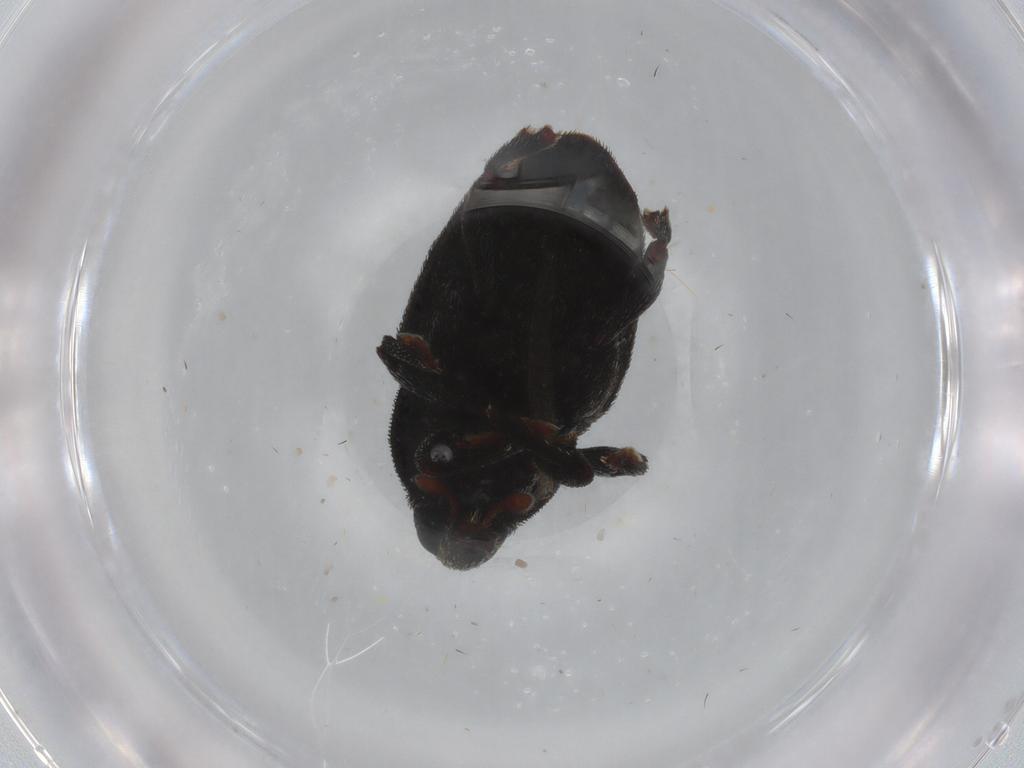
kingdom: Animalia
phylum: Arthropoda
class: Insecta
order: Coleoptera
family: Curculionidae
